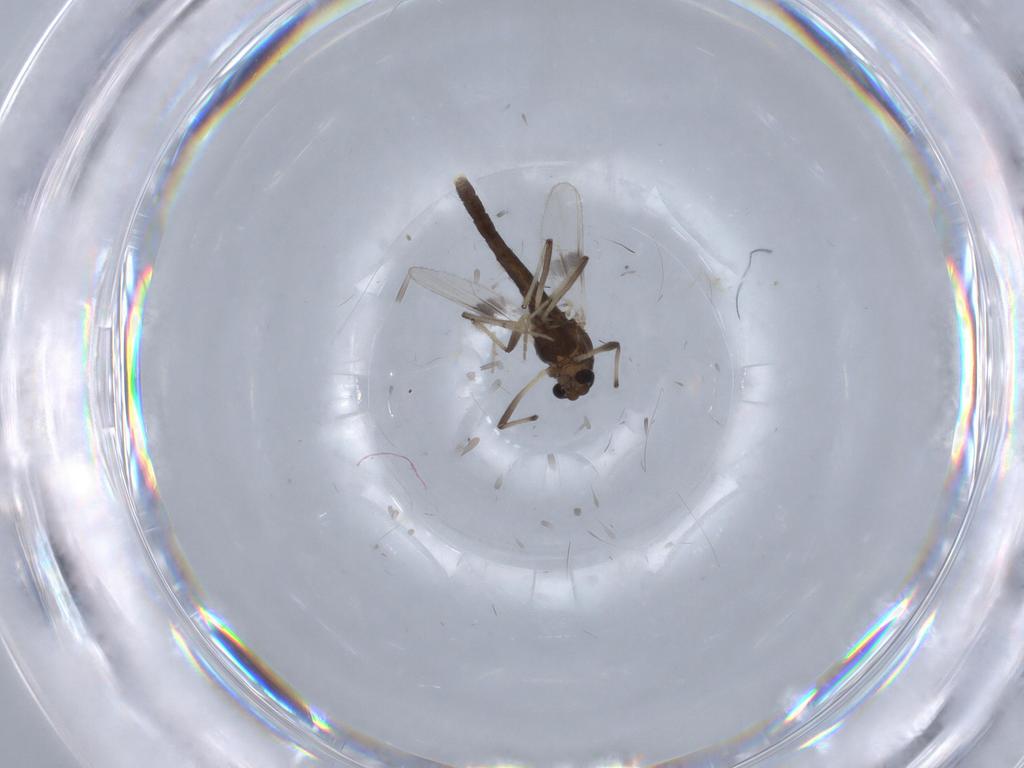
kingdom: Animalia
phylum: Arthropoda
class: Insecta
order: Diptera
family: Chironomidae
